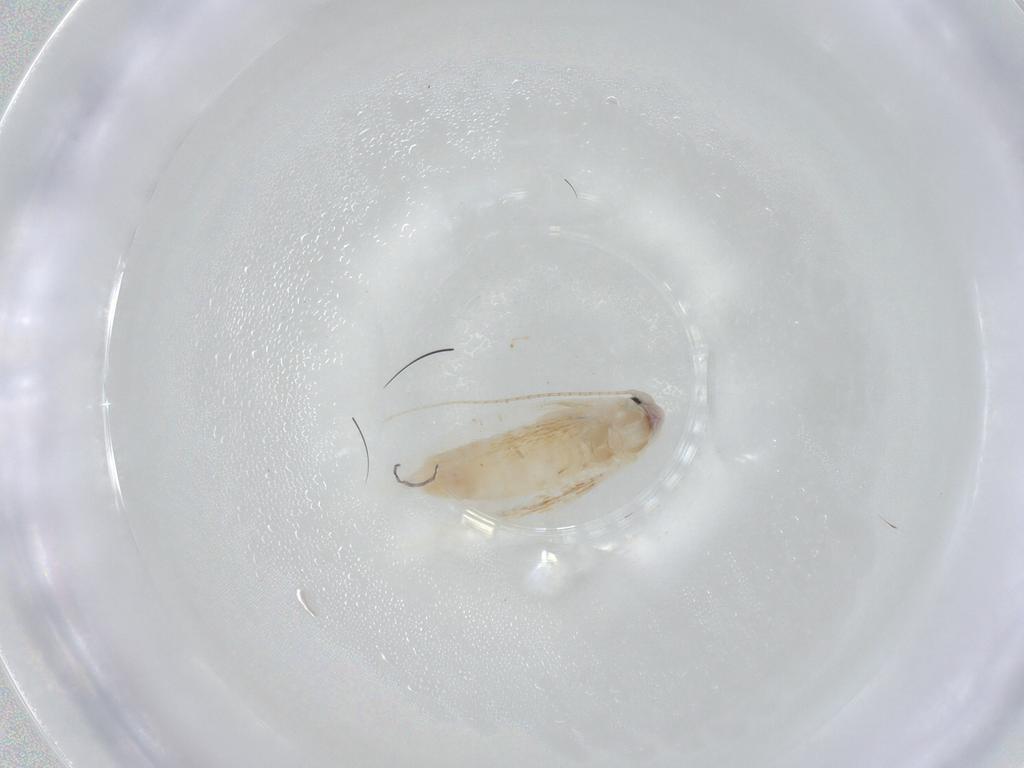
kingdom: Animalia
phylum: Arthropoda
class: Insecta
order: Lepidoptera
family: Bucculatricidae
